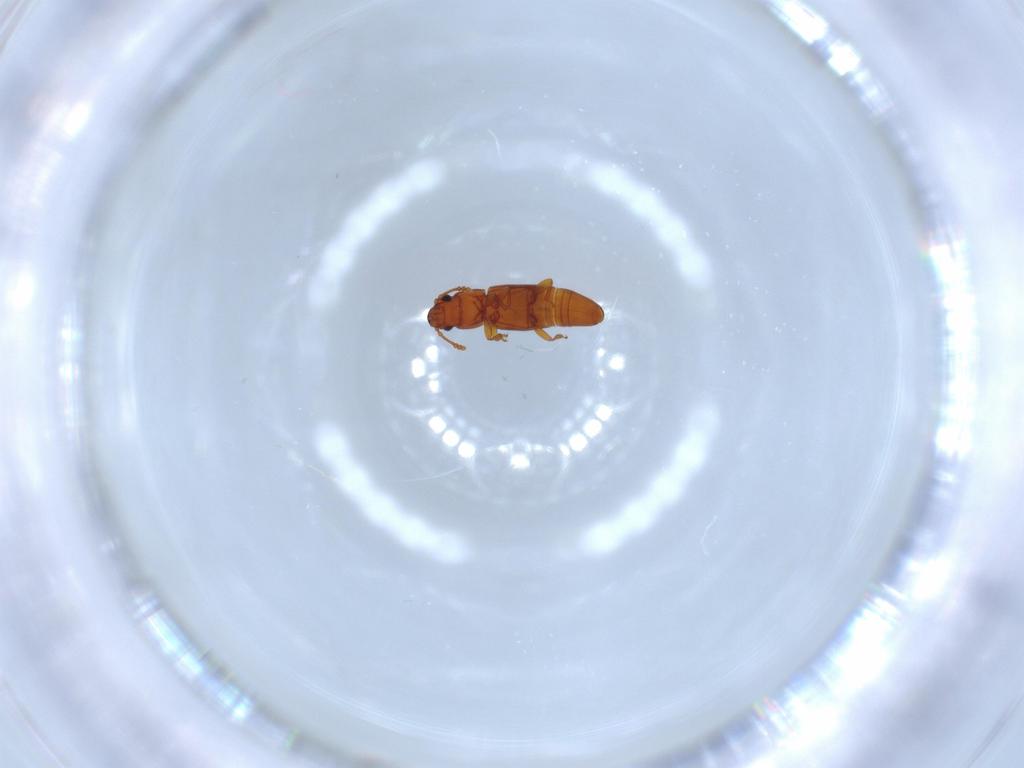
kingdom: Animalia
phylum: Arthropoda
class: Insecta
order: Coleoptera
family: Smicripidae
